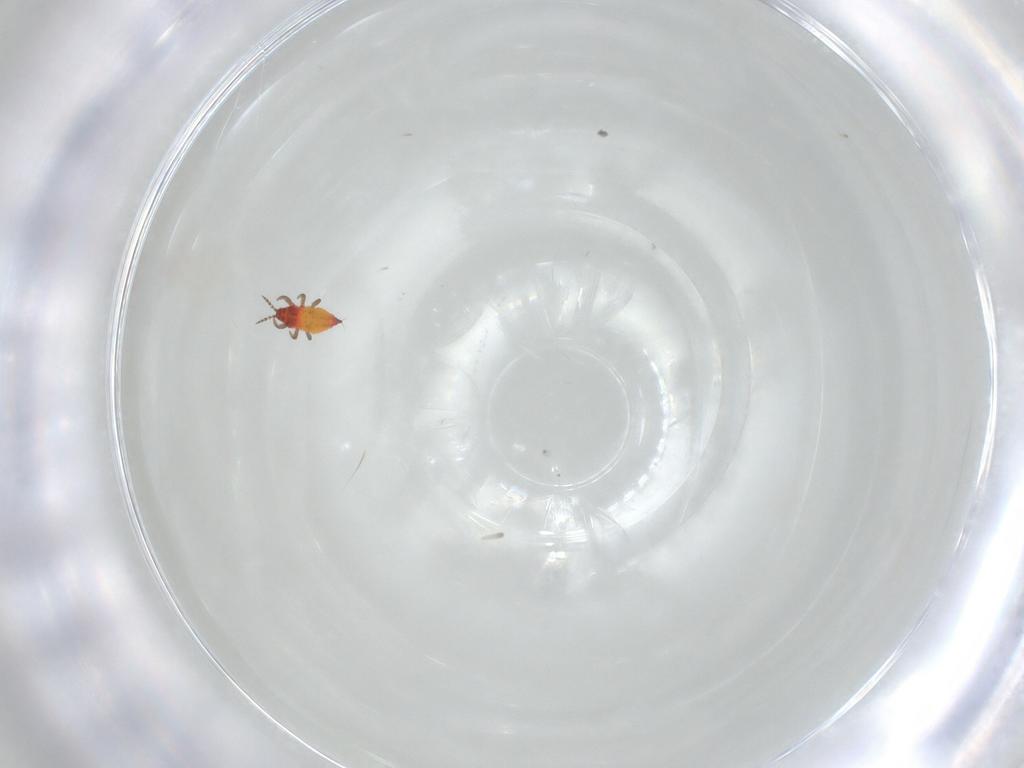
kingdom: Animalia
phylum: Arthropoda
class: Insecta
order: Thysanoptera
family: Phlaeothripidae
